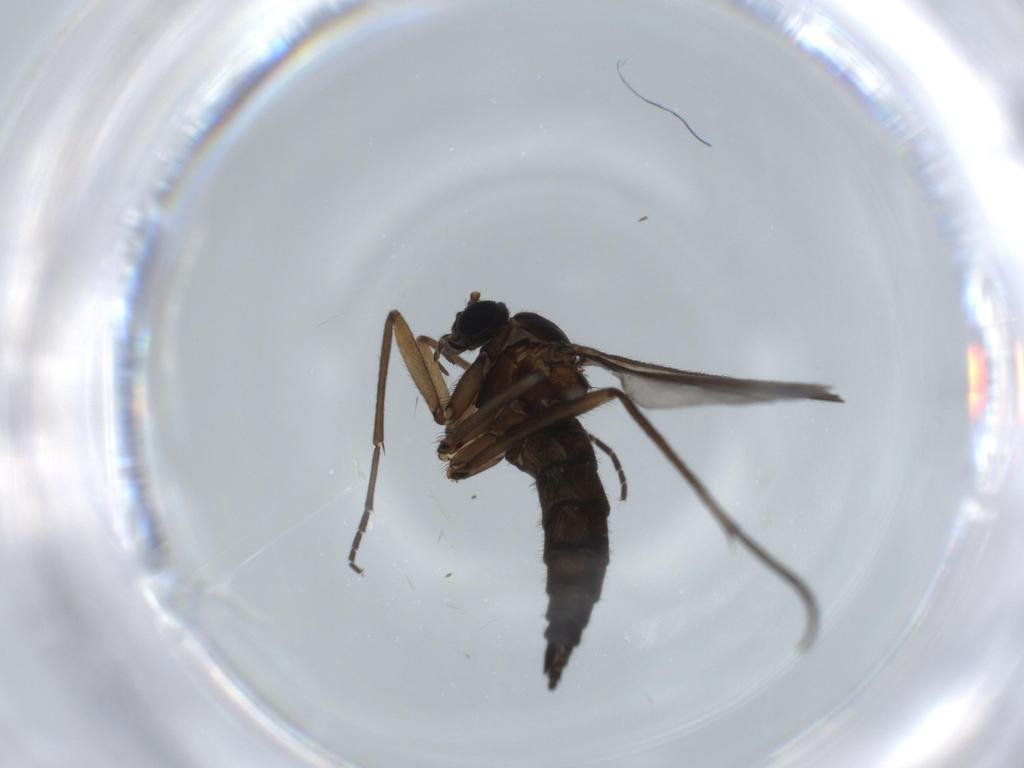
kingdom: Animalia
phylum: Arthropoda
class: Insecta
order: Diptera
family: Sciaridae
